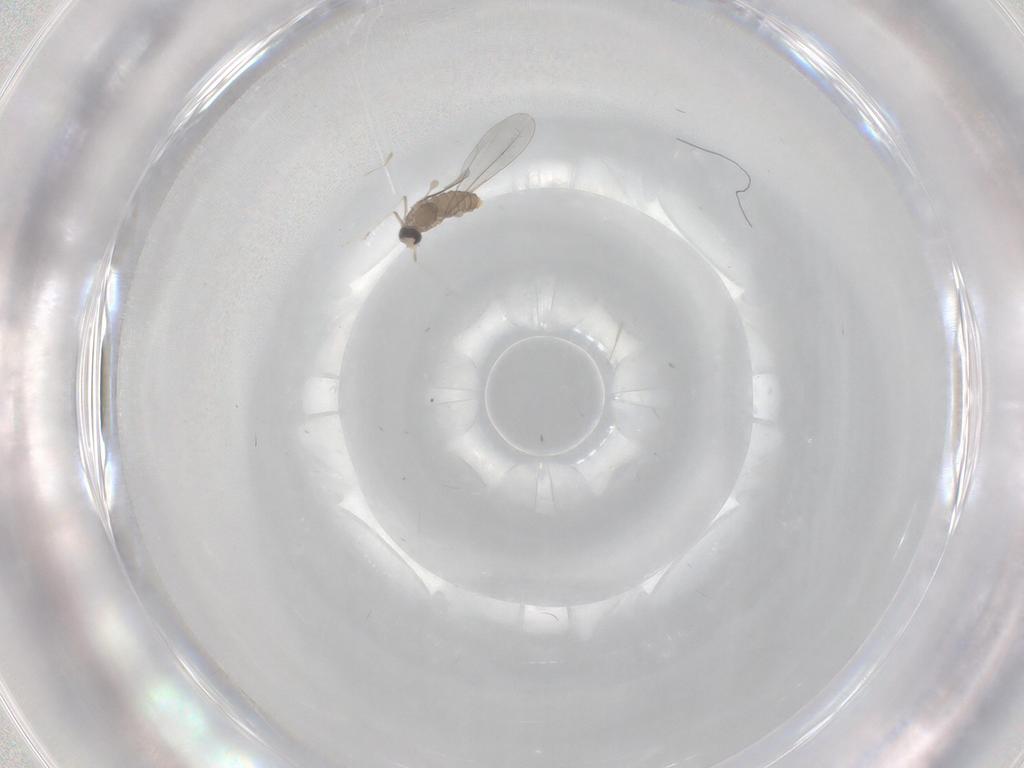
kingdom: Animalia
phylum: Arthropoda
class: Insecta
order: Diptera
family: Cecidomyiidae
